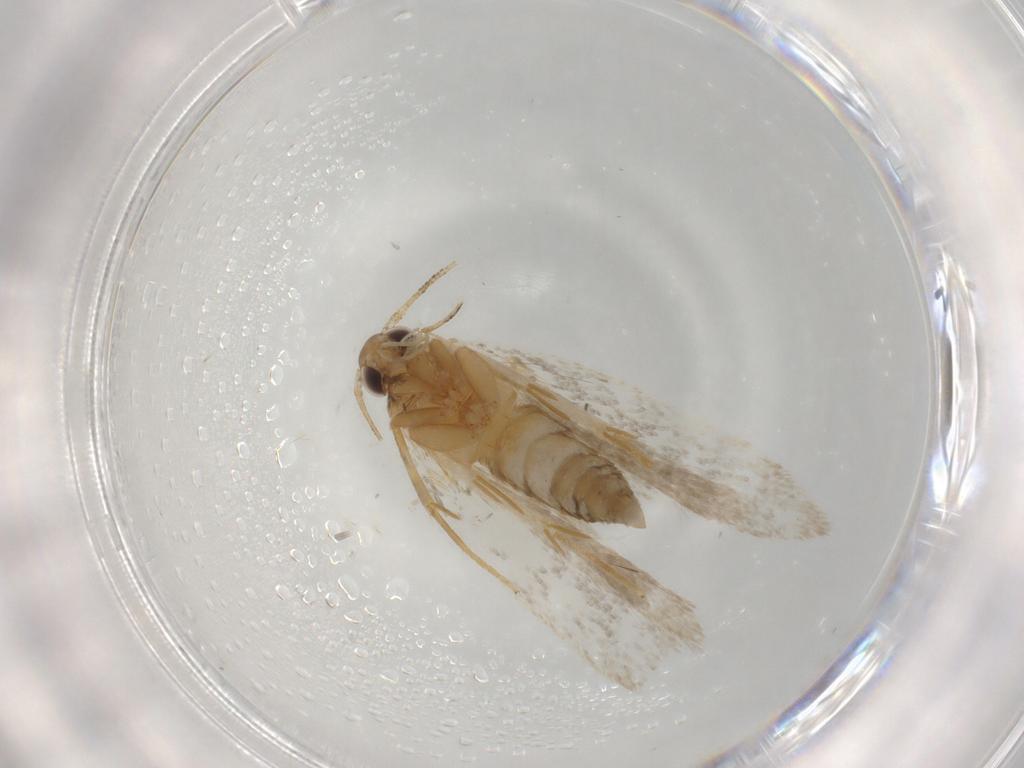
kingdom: Animalia
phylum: Arthropoda
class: Insecta
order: Lepidoptera
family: Autostichidae
